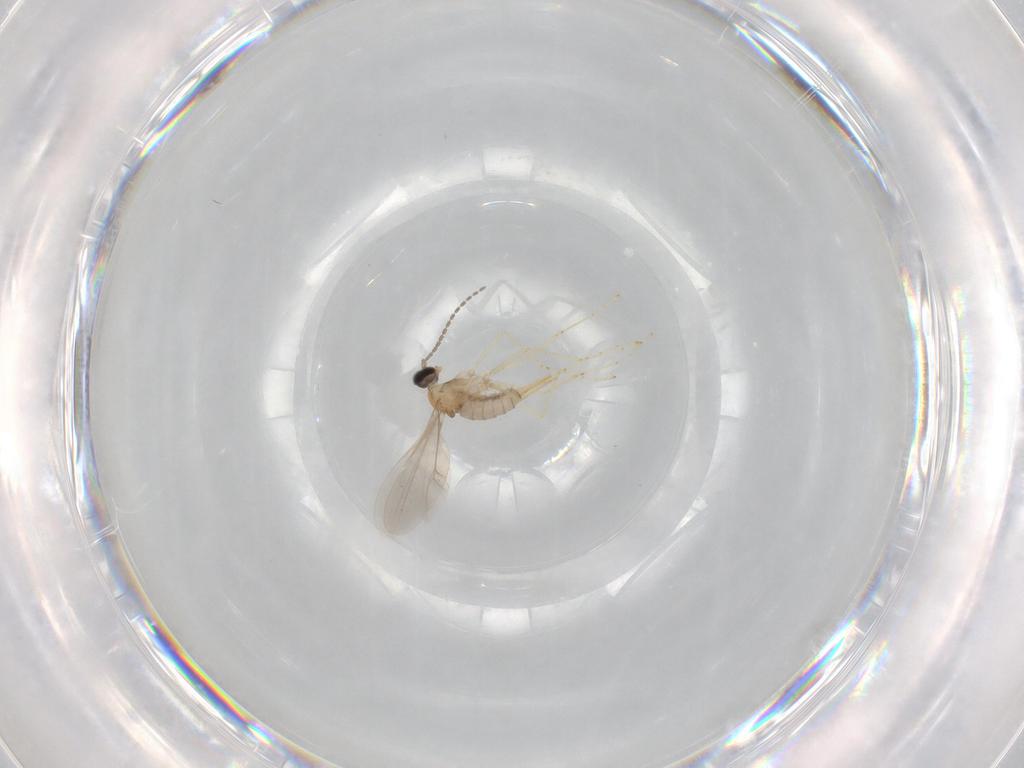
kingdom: Animalia
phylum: Arthropoda
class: Insecta
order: Diptera
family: Cecidomyiidae
